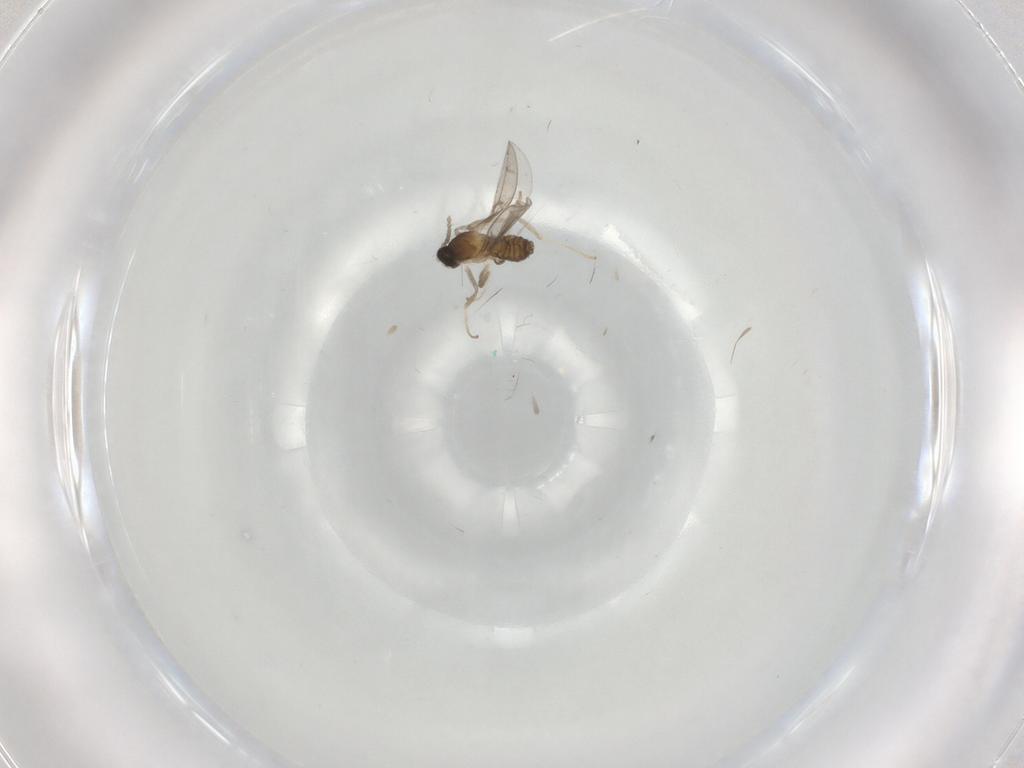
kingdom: Animalia
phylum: Arthropoda
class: Insecta
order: Diptera
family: Cecidomyiidae
